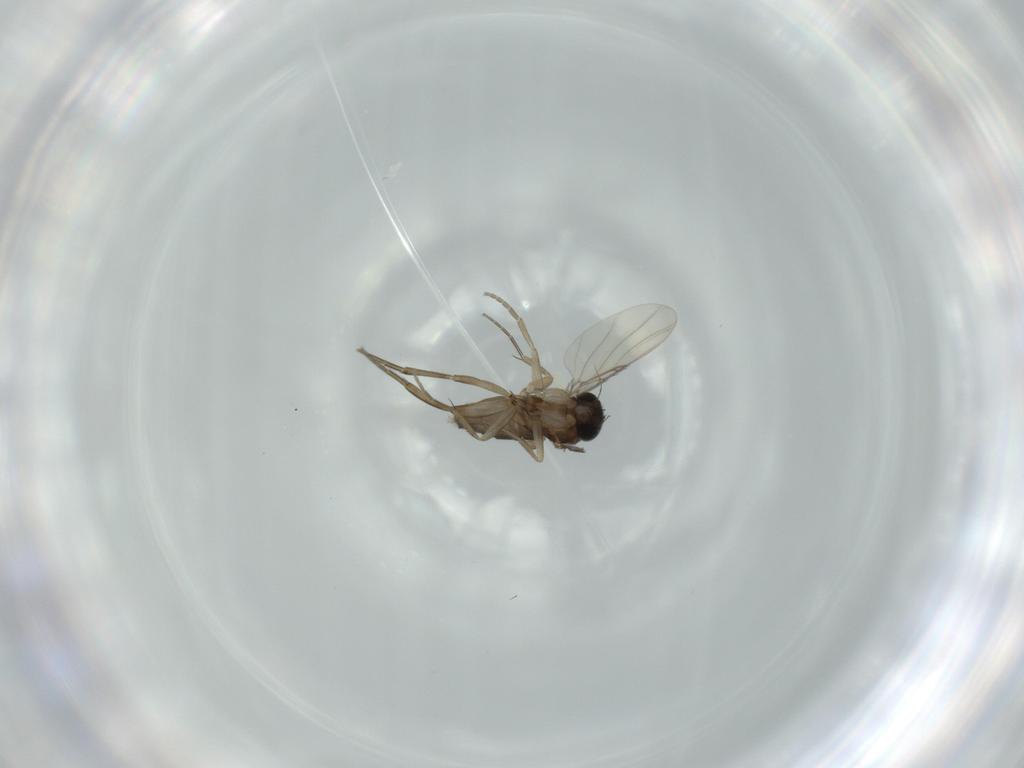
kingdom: Animalia
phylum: Arthropoda
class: Insecta
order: Diptera
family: Phoridae
